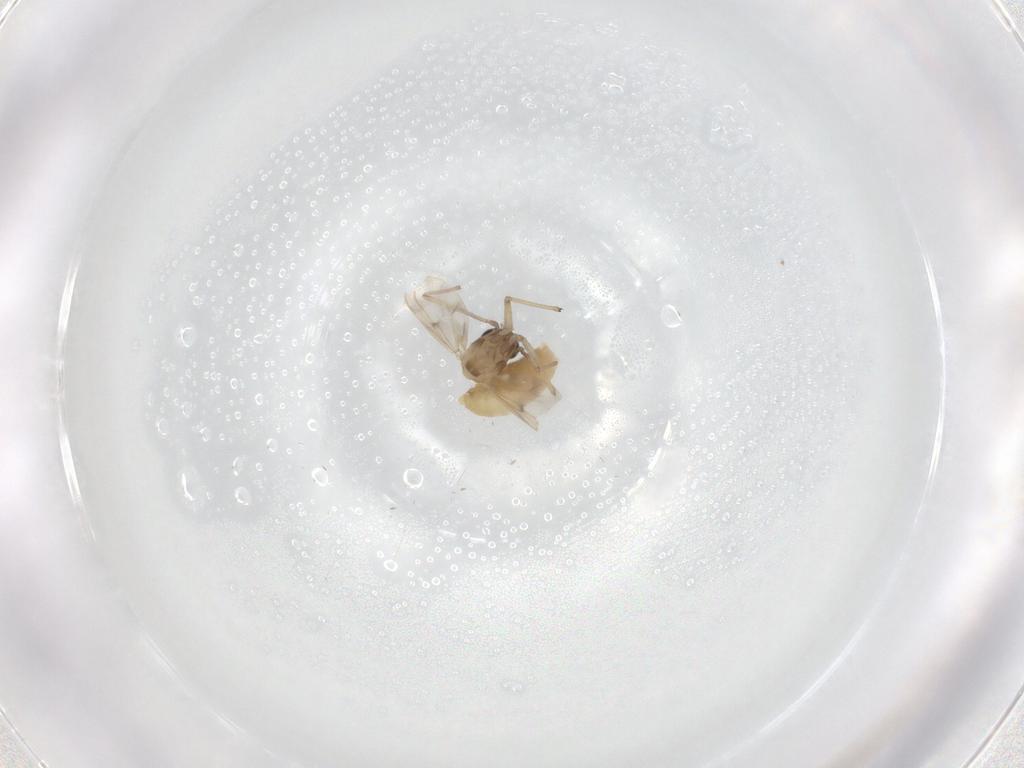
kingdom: Animalia
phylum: Arthropoda
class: Insecta
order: Diptera
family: Chironomidae
